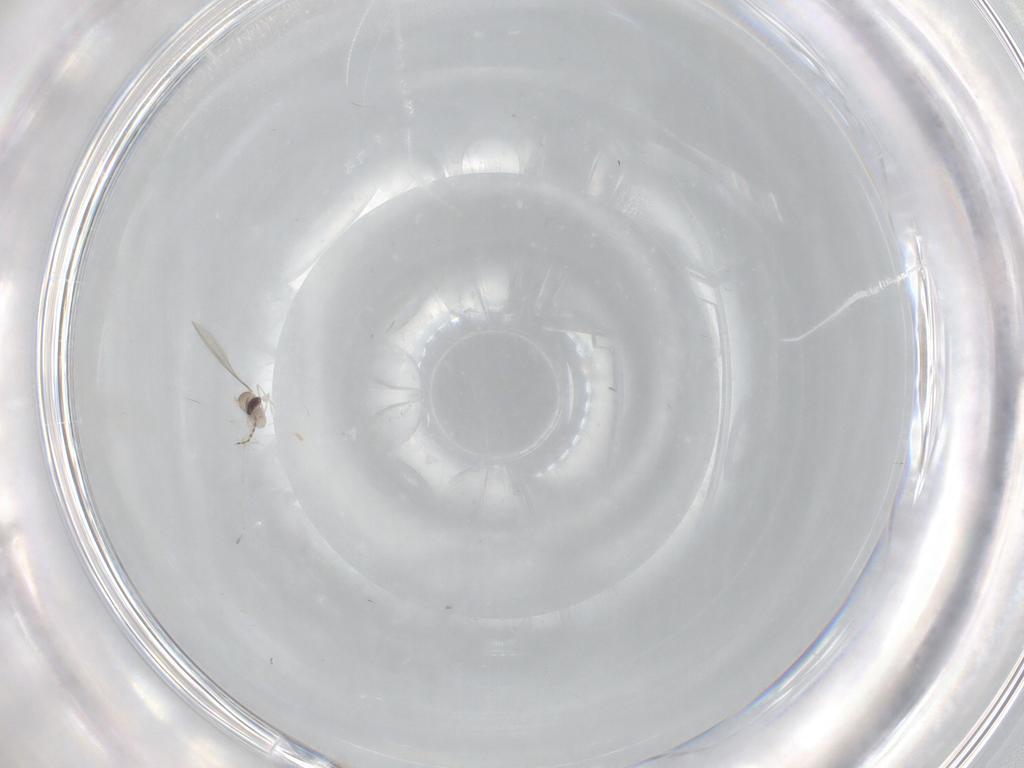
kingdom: Animalia
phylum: Arthropoda
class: Insecta
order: Diptera
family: Cecidomyiidae
